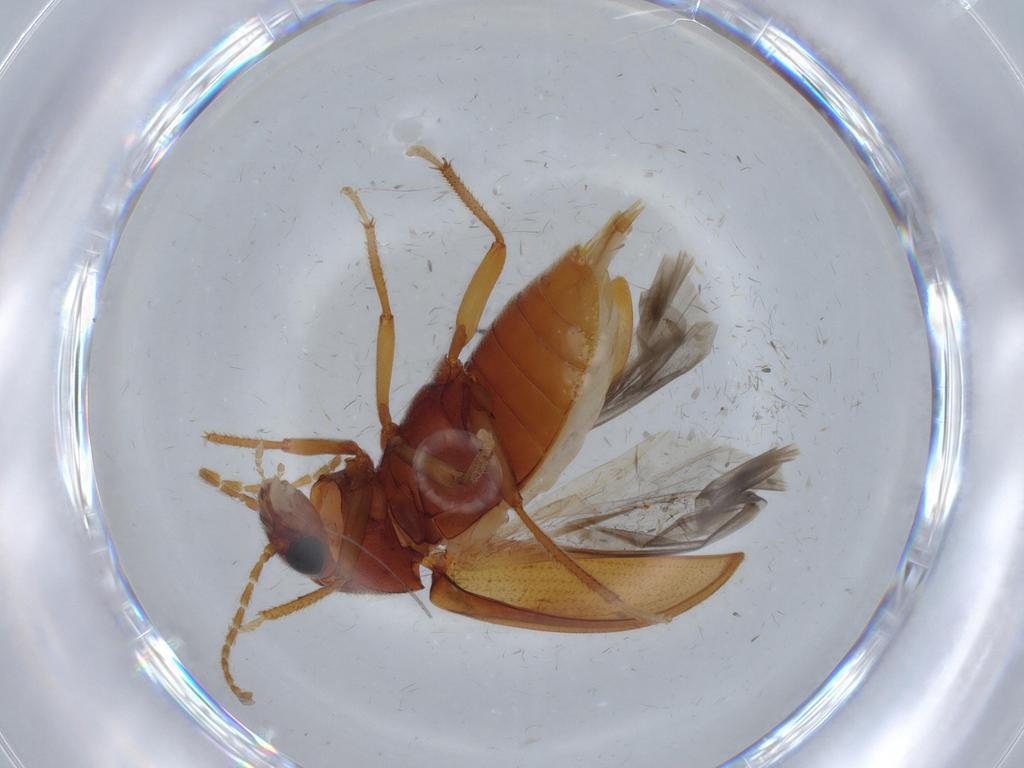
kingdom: Animalia
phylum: Arthropoda
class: Insecta
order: Coleoptera
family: Ptilodactylidae
